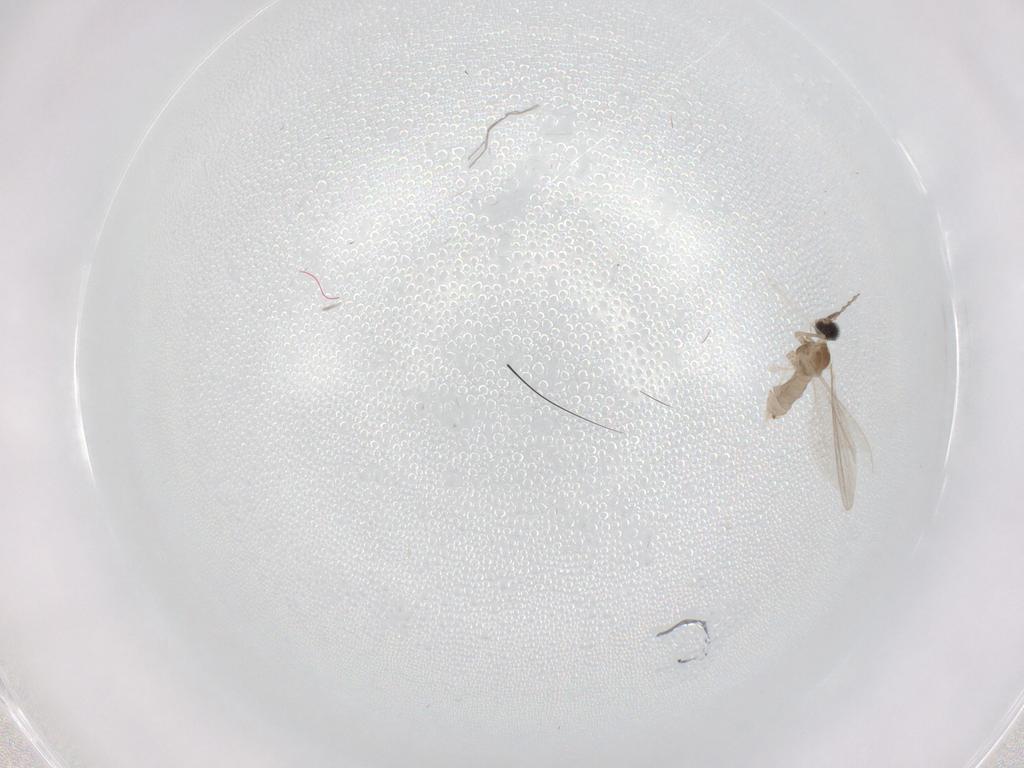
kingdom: Animalia
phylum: Arthropoda
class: Insecta
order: Diptera
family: Cecidomyiidae
